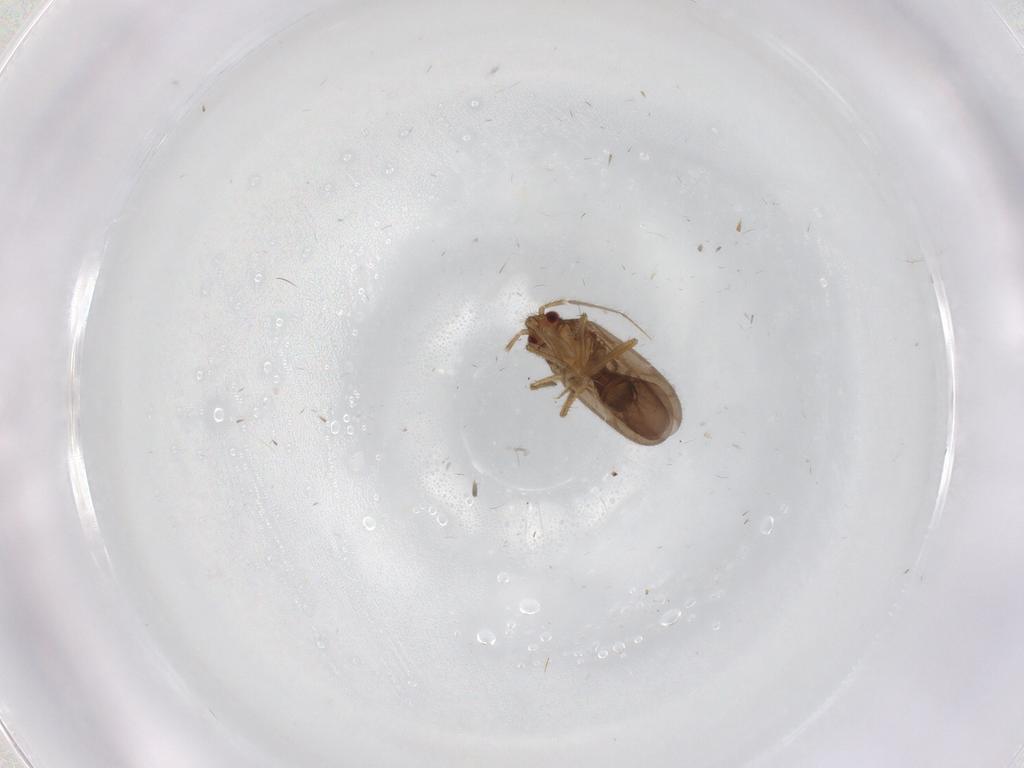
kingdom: Animalia
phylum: Arthropoda
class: Insecta
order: Hemiptera
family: Ceratocombidae
